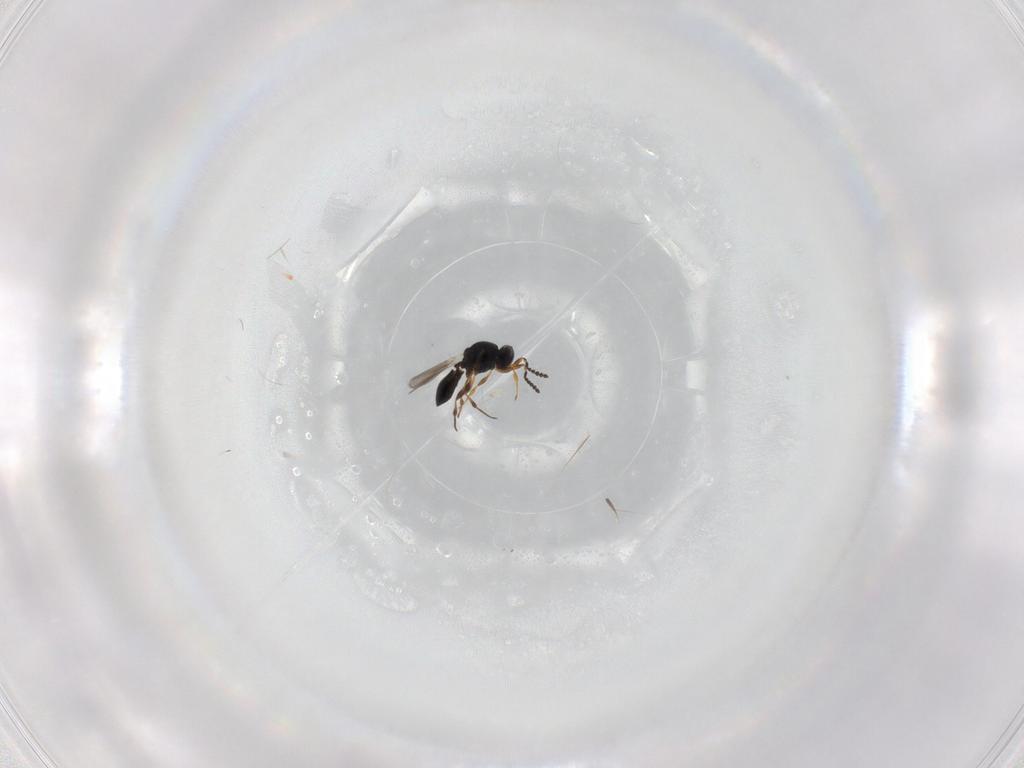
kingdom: Animalia
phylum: Arthropoda
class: Insecta
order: Hymenoptera
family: Platygastridae
